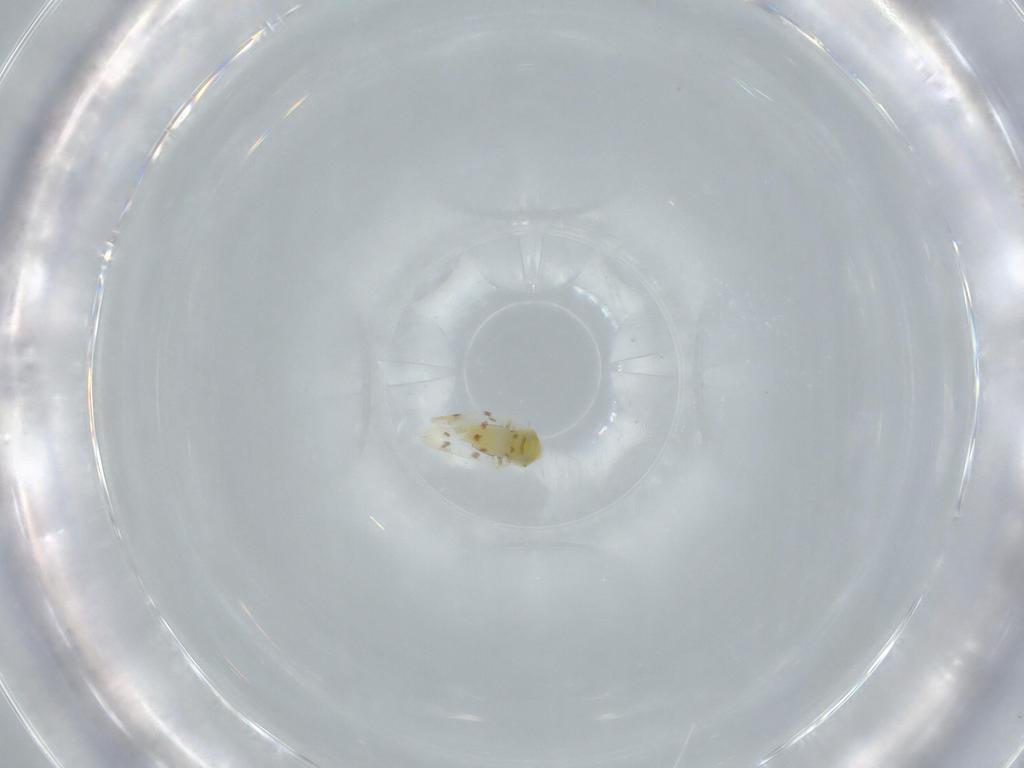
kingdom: Animalia
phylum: Arthropoda
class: Insecta
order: Hemiptera
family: Aleyrodidae
